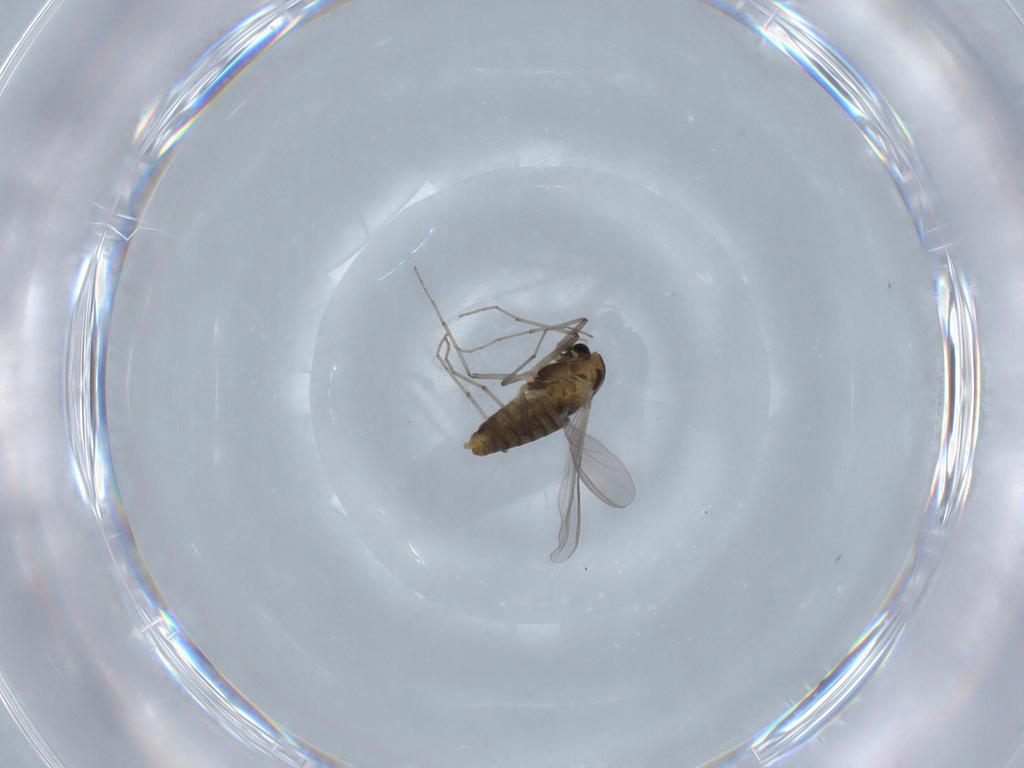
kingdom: Animalia
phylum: Arthropoda
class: Insecta
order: Diptera
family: Chironomidae
